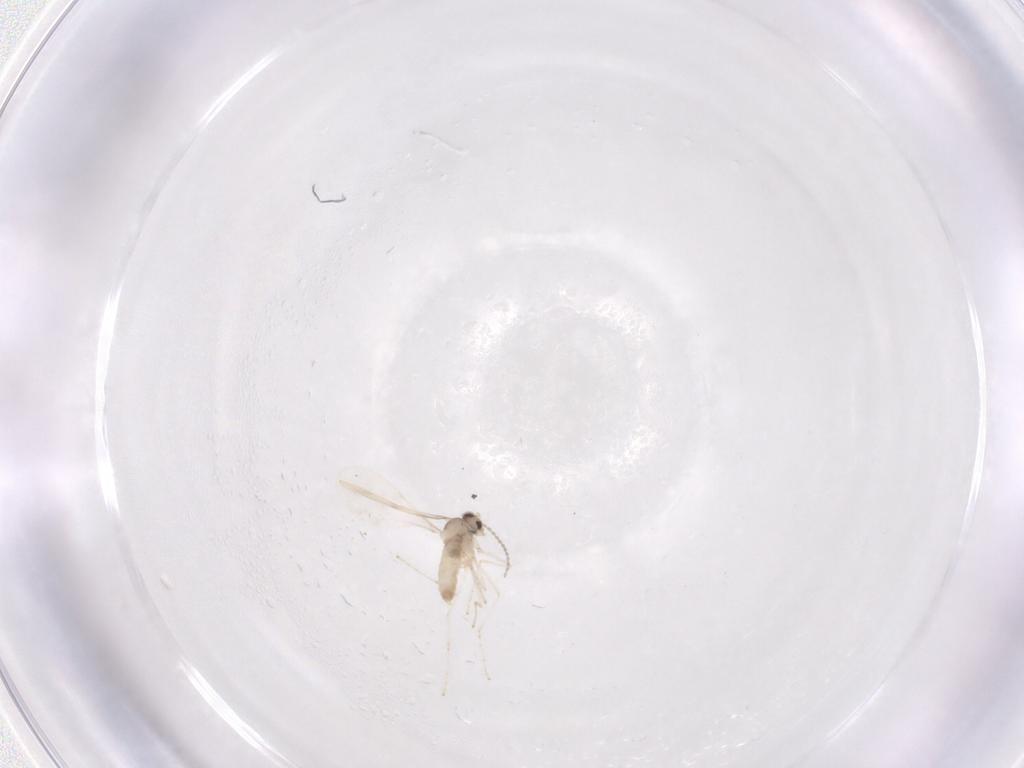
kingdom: Animalia
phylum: Arthropoda
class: Insecta
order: Diptera
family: Cecidomyiidae
